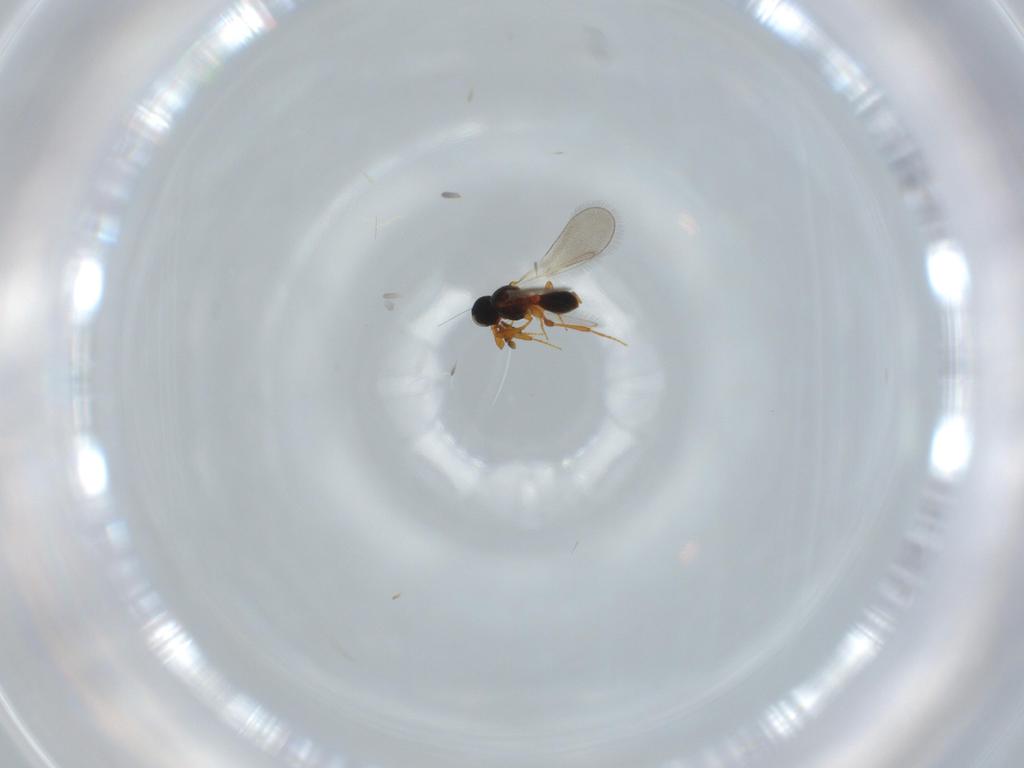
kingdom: Animalia
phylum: Arthropoda
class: Insecta
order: Hymenoptera
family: Platygastridae
